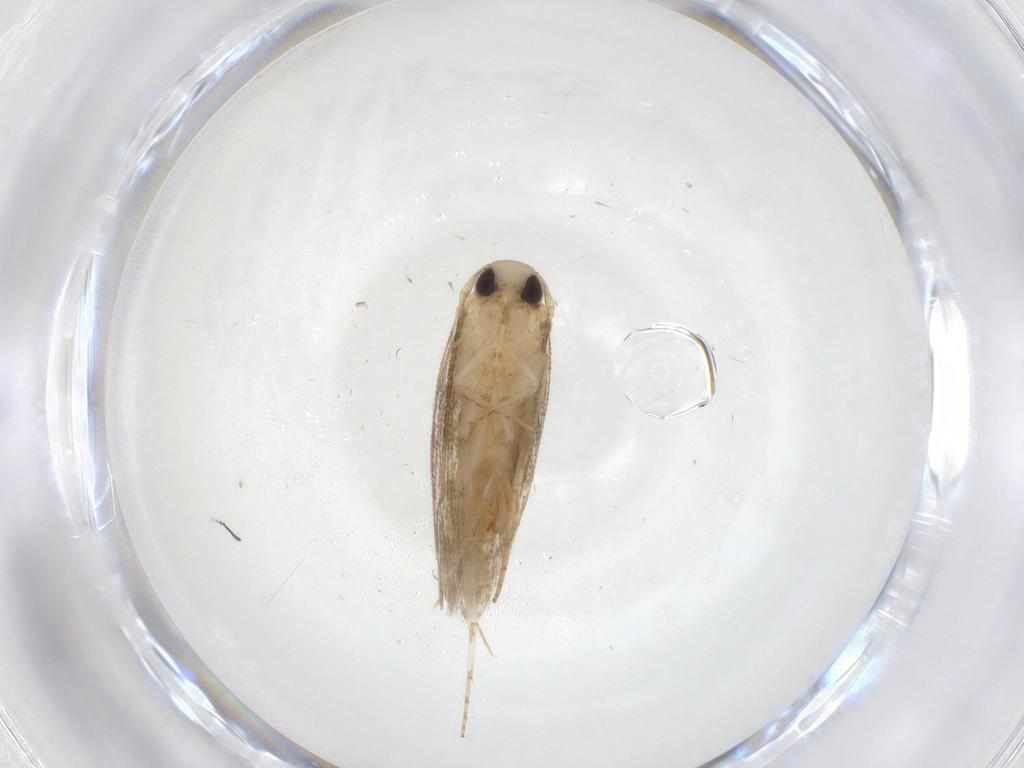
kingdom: Animalia
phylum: Arthropoda
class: Insecta
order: Lepidoptera
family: Gelechiidae
